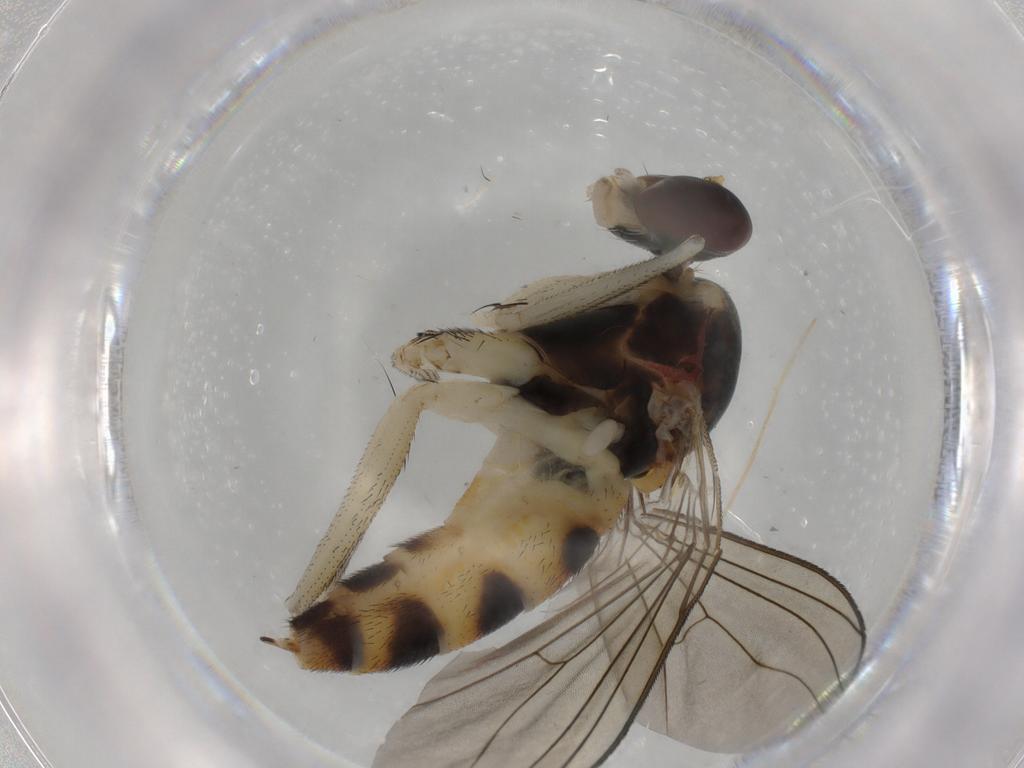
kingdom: Animalia
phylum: Arthropoda
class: Insecta
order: Diptera
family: Dolichopodidae
